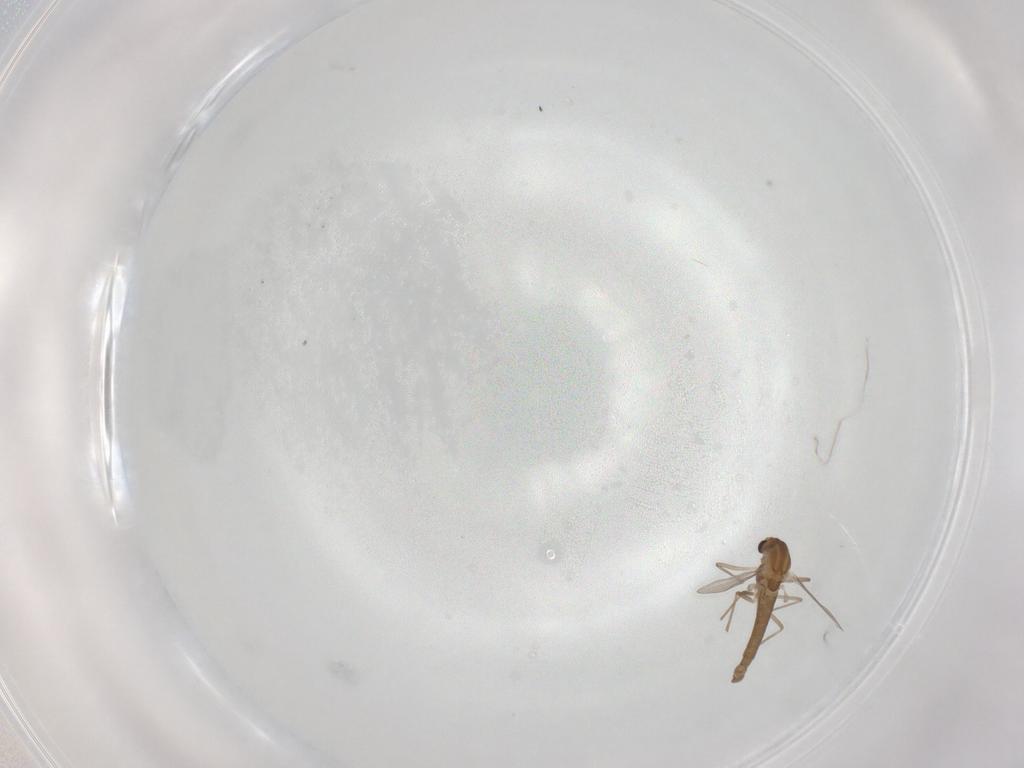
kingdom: Animalia
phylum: Arthropoda
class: Insecta
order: Diptera
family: Chironomidae
